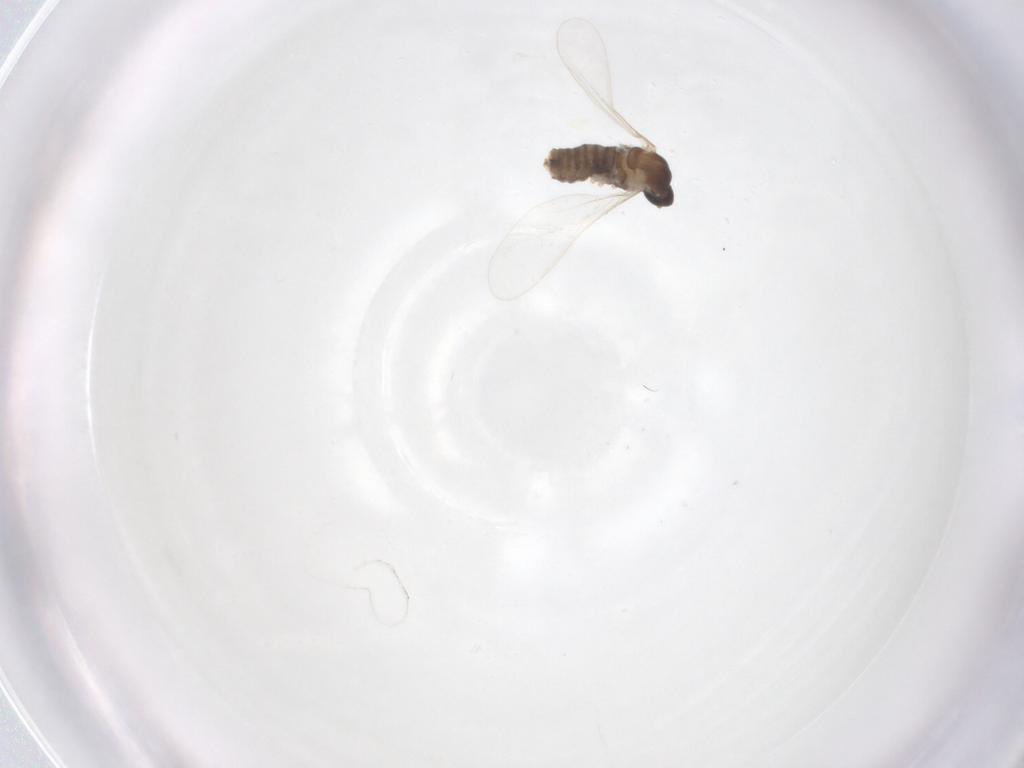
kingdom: Animalia
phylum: Arthropoda
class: Insecta
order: Diptera
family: Cecidomyiidae
